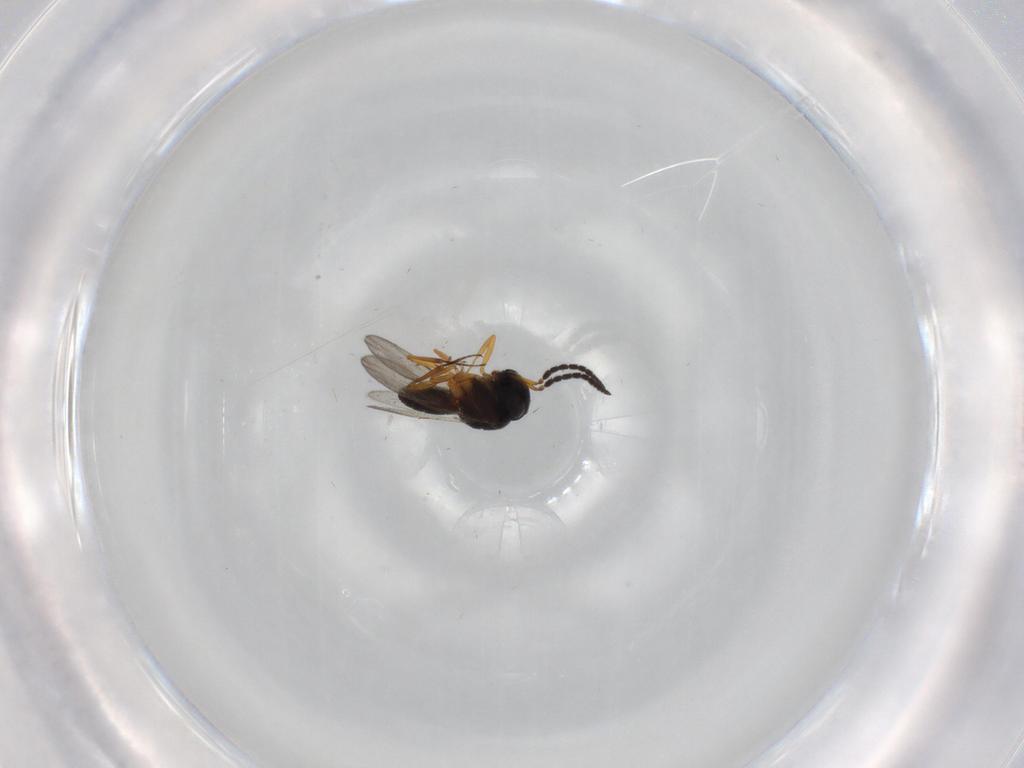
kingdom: Animalia
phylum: Arthropoda
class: Insecta
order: Hymenoptera
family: Scelionidae
